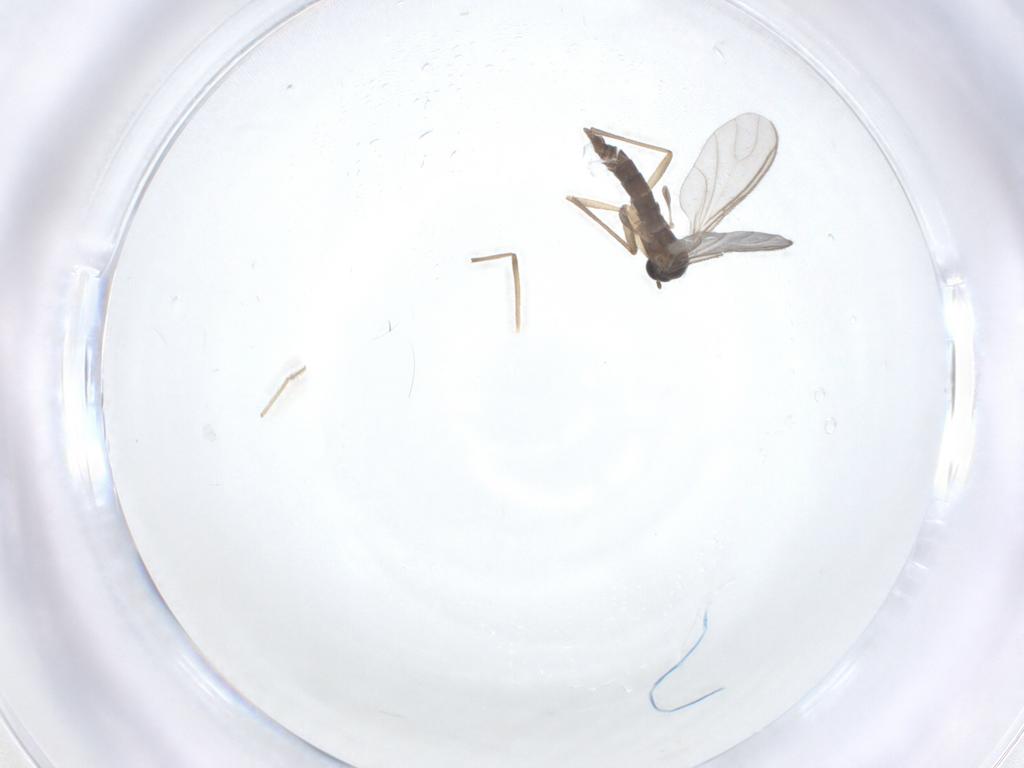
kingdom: Animalia
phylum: Arthropoda
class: Insecta
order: Diptera
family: Sciaridae
